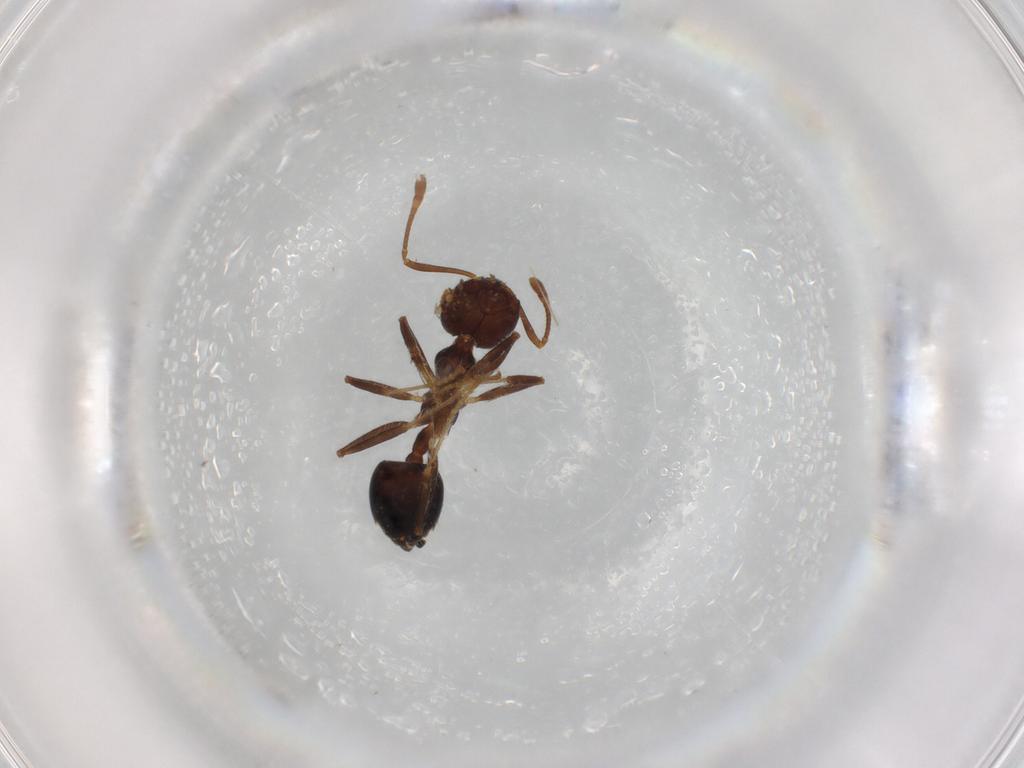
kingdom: Animalia
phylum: Arthropoda
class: Insecta
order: Hymenoptera
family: Formicidae
